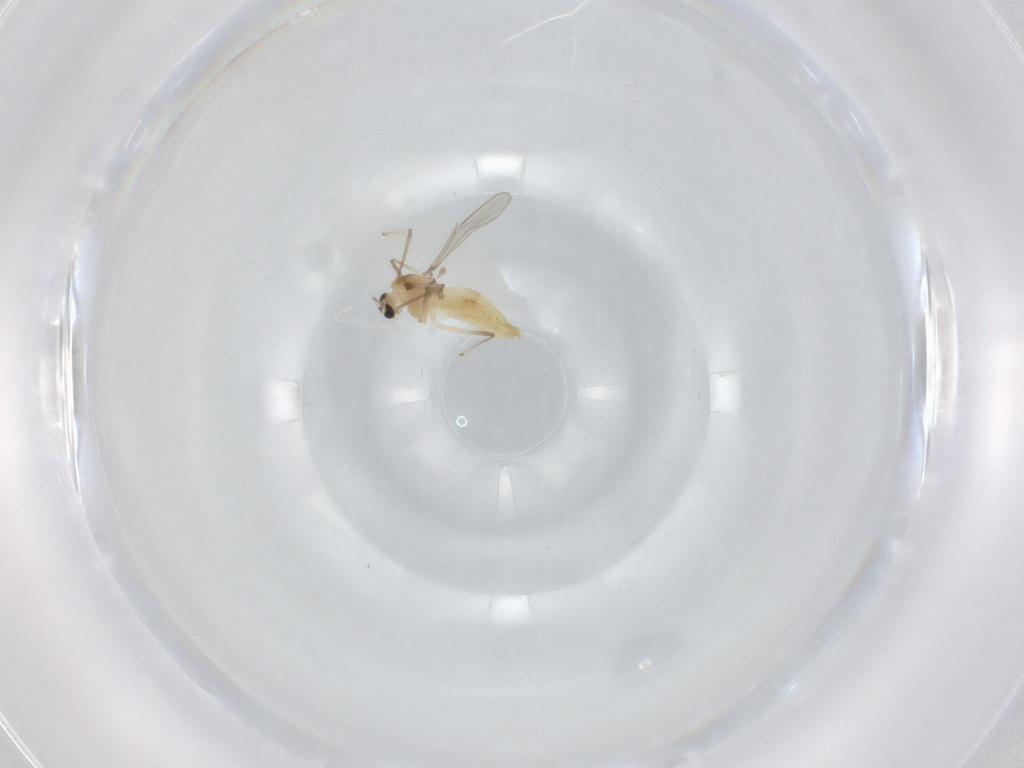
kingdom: Animalia
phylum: Arthropoda
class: Insecta
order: Diptera
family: Chironomidae
